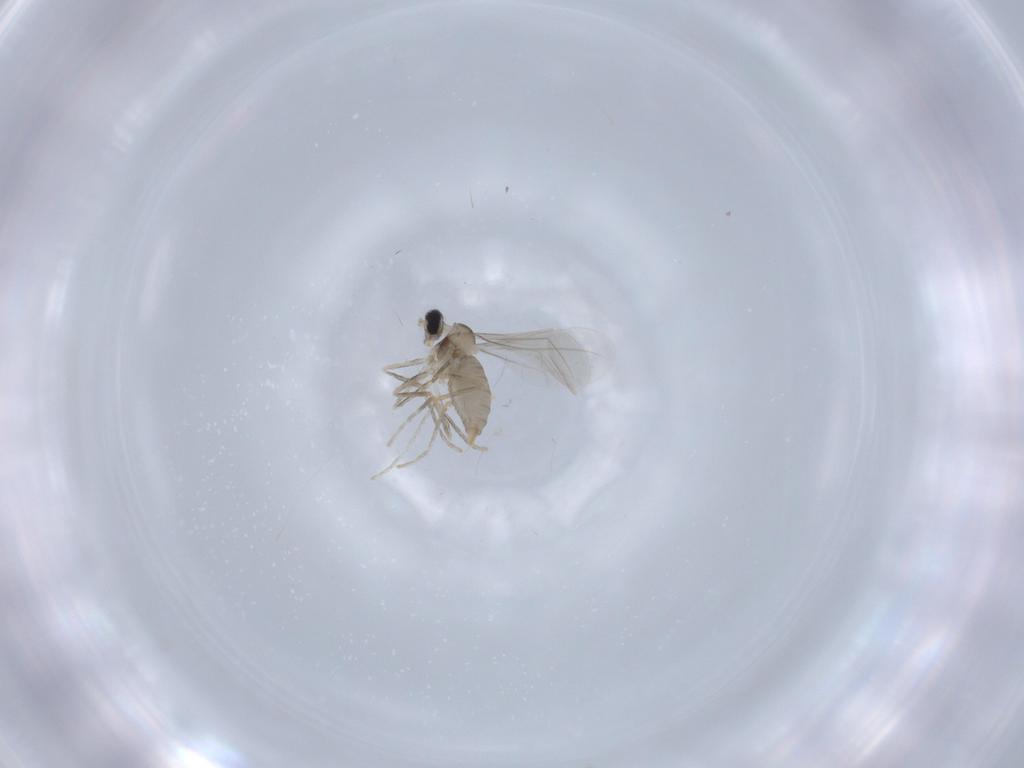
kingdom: Animalia
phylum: Arthropoda
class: Insecta
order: Diptera
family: Cecidomyiidae
